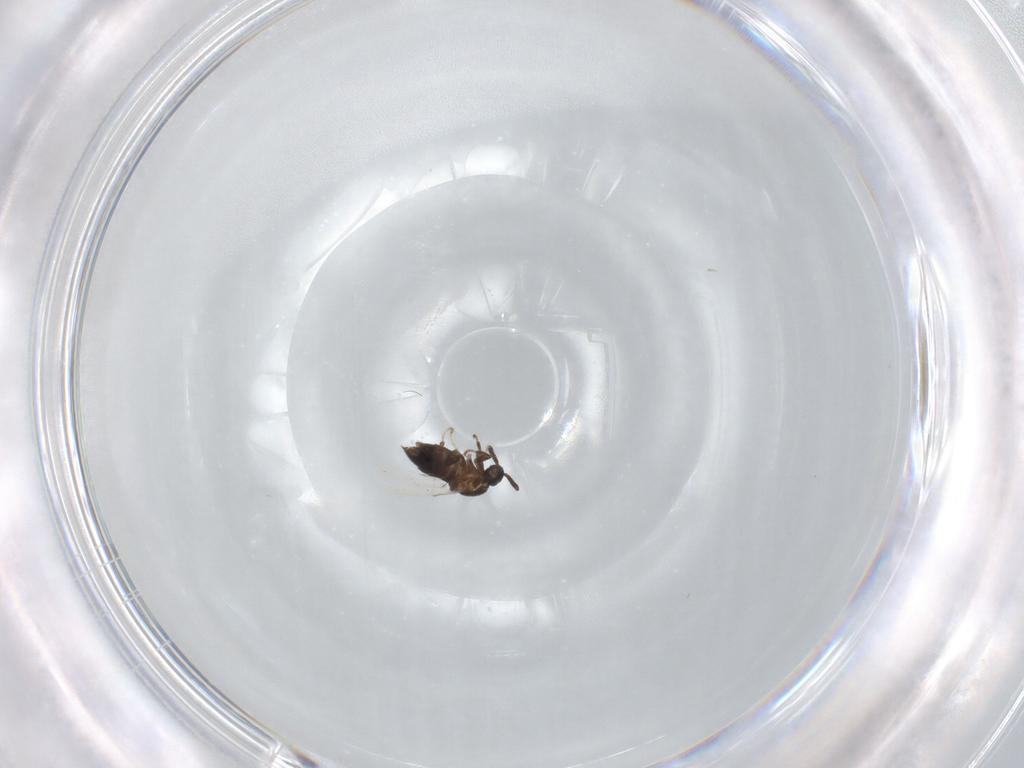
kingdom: Animalia
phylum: Arthropoda
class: Insecta
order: Diptera
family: Scatopsidae
